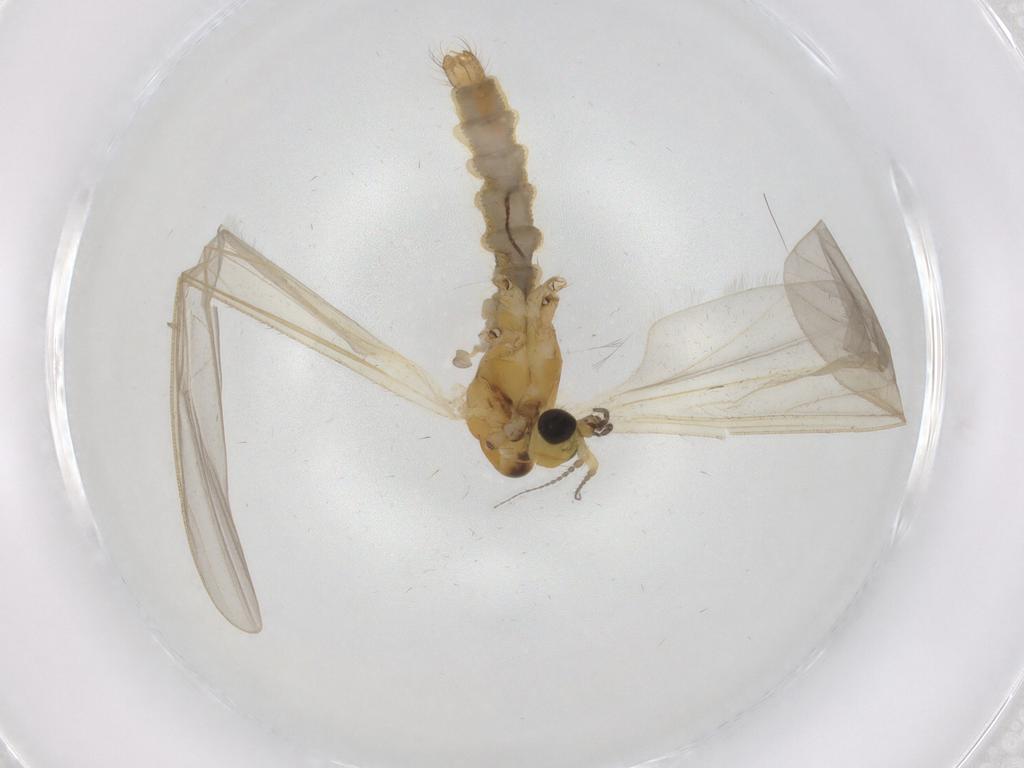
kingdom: Animalia
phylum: Arthropoda
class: Insecta
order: Diptera
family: Limoniidae
